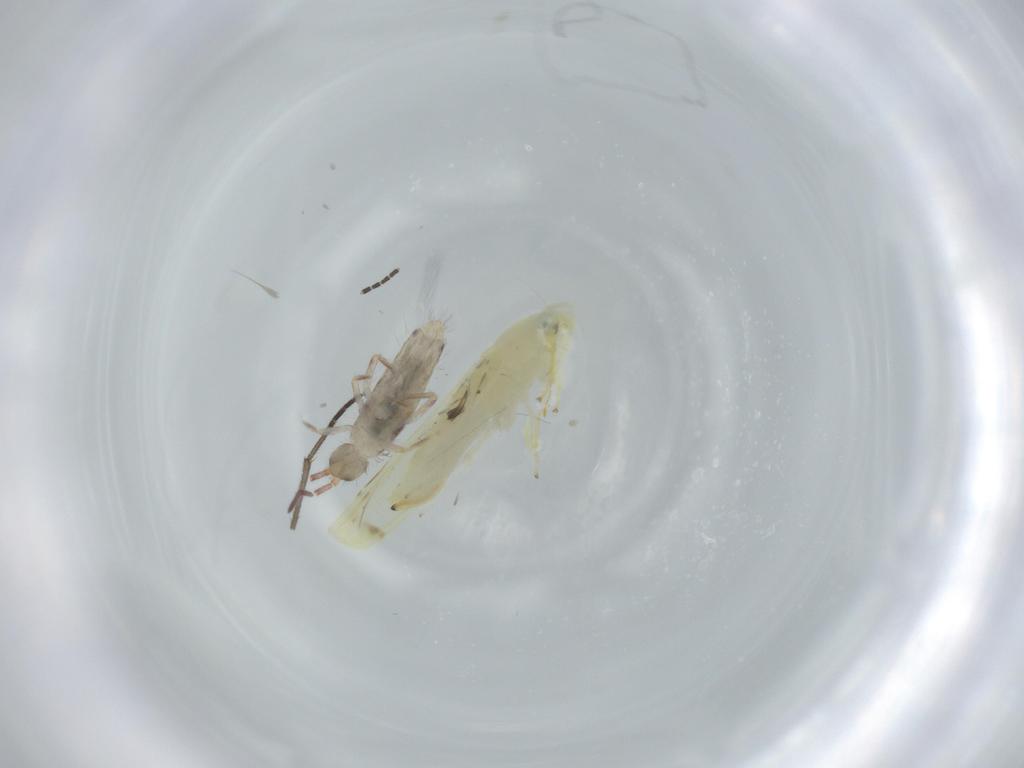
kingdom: Animalia
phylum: Arthropoda
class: Collembola
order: Entomobryomorpha
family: Entomobryidae
